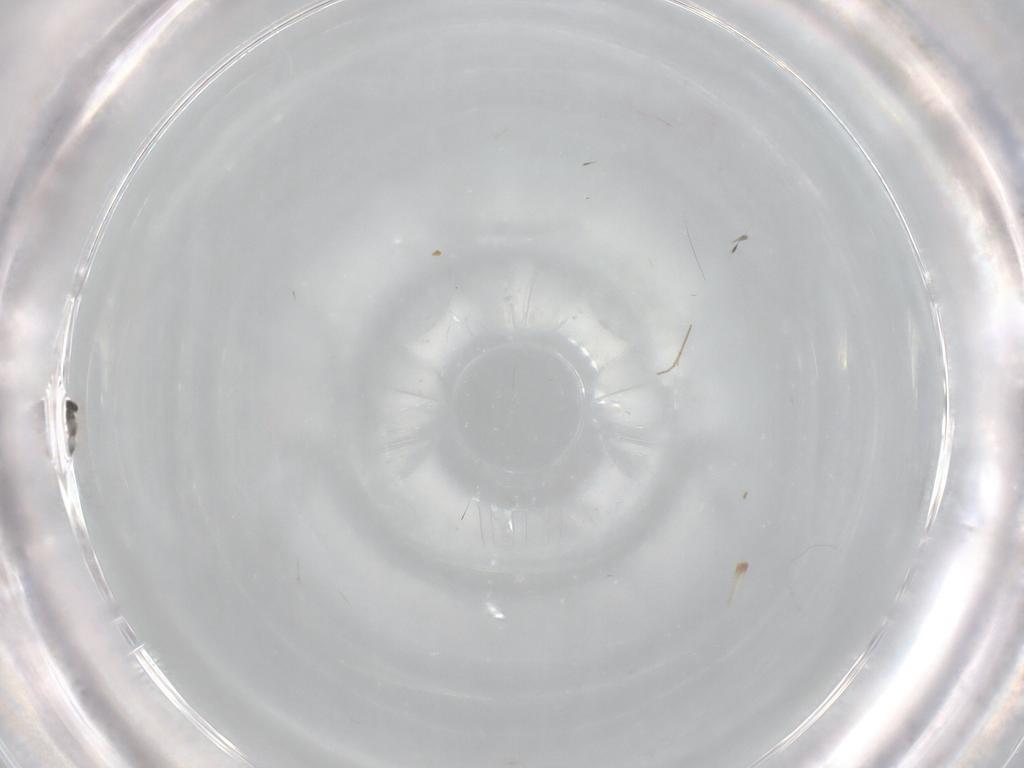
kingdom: Animalia
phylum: Arthropoda
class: Insecta
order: Hymenoptera
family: Mymaridae
